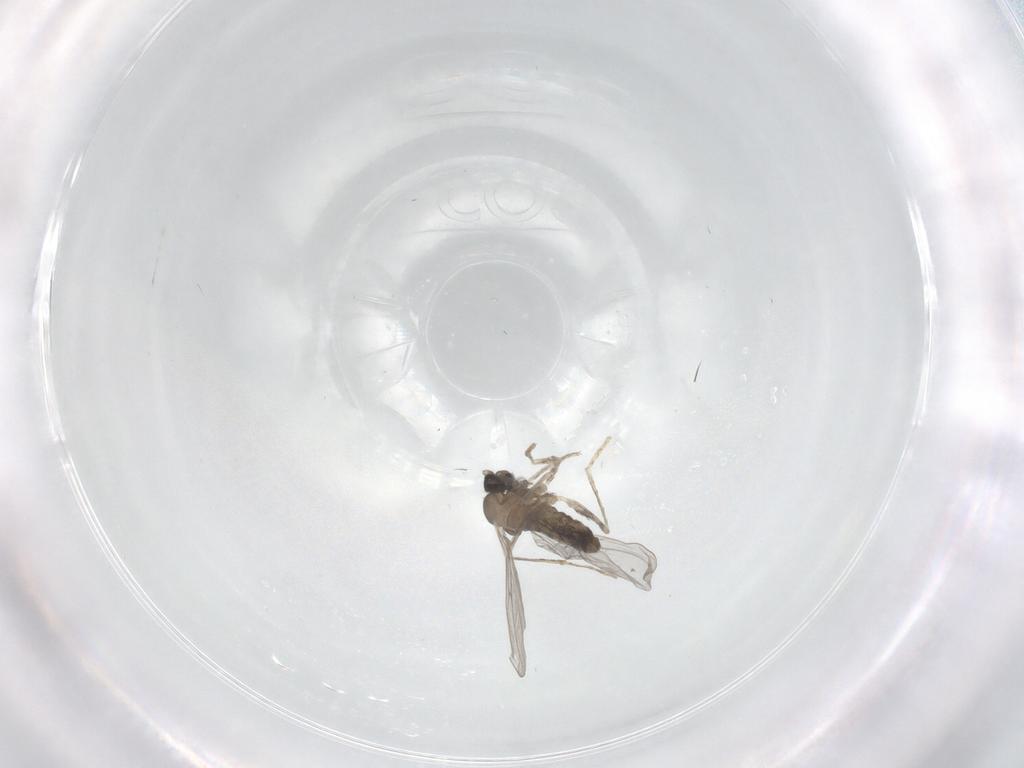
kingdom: Animalia
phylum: Arthropoda
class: Insecta
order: Diptera
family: Cecidomyiidae
